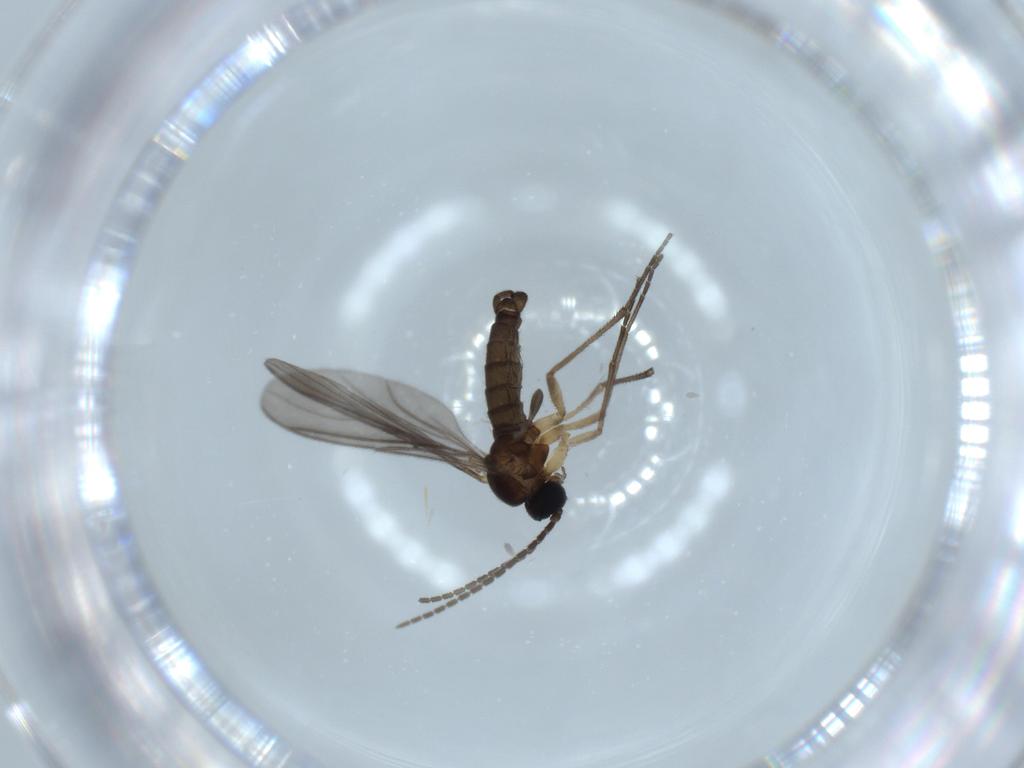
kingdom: Animalia
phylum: Arthropoda
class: Insecta
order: Diptera
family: Sciaridae
